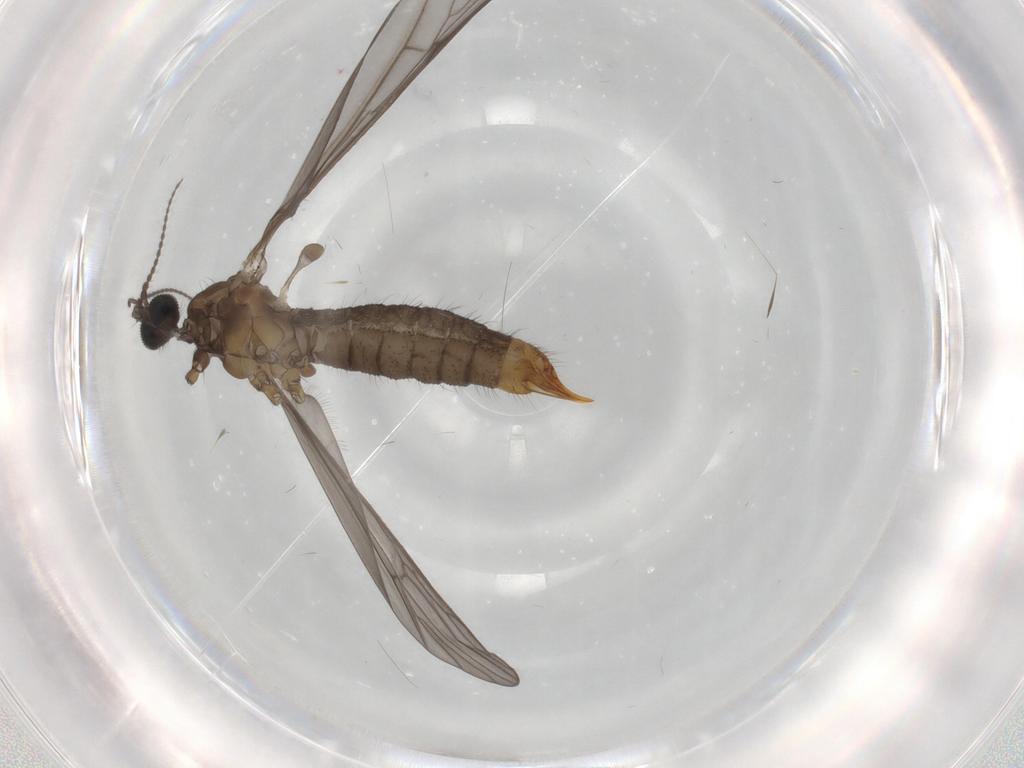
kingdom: Animalia
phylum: Arthropoda
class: Insecta
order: Diptera
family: Limoniidae
